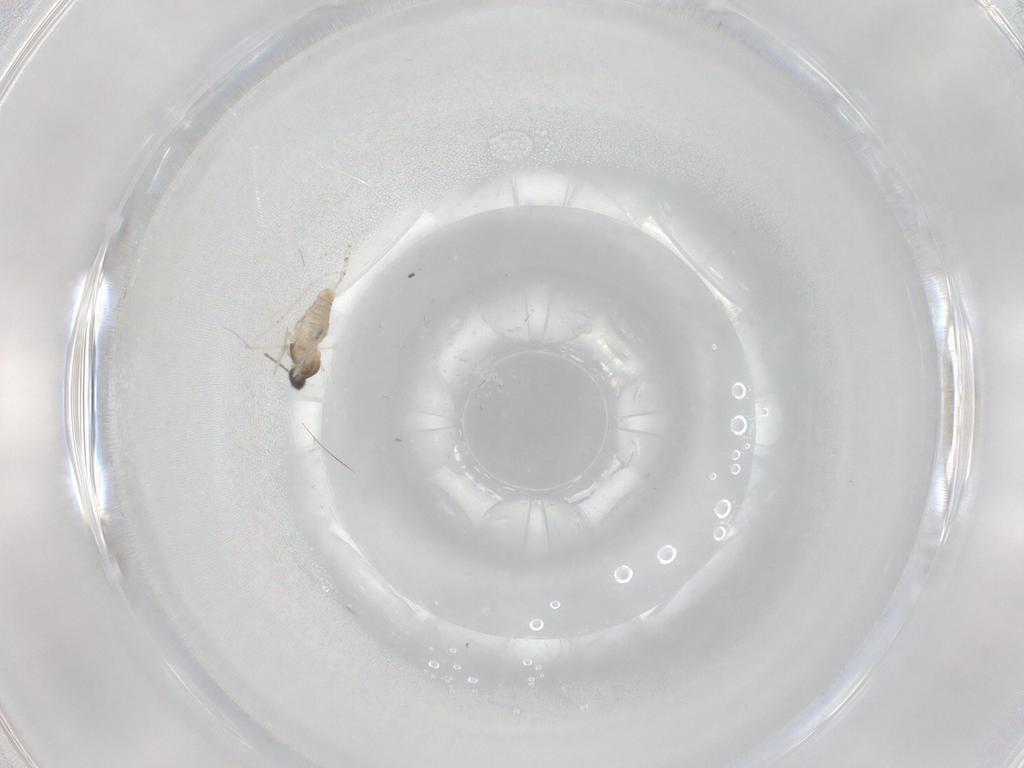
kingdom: Animalia
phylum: Arthropoda
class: Insecta
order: Diptera
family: Cecidomyiidae
